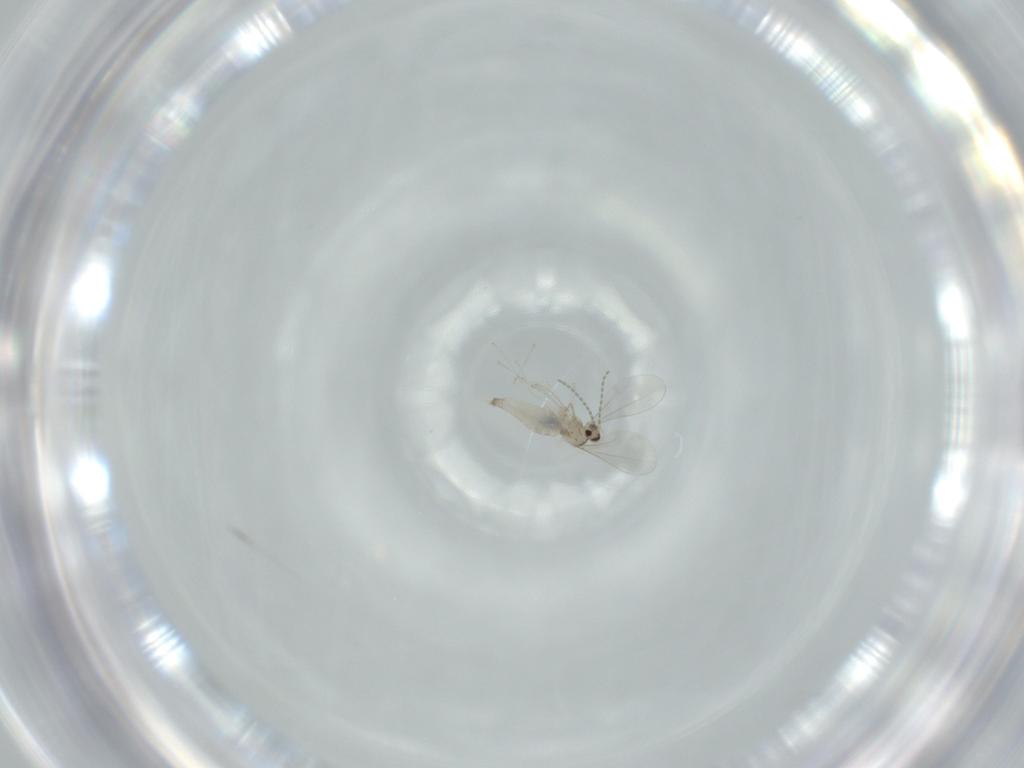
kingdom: Animalia
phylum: Arthropoda
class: Insecta
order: Diptera
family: Cecidomyiidae
